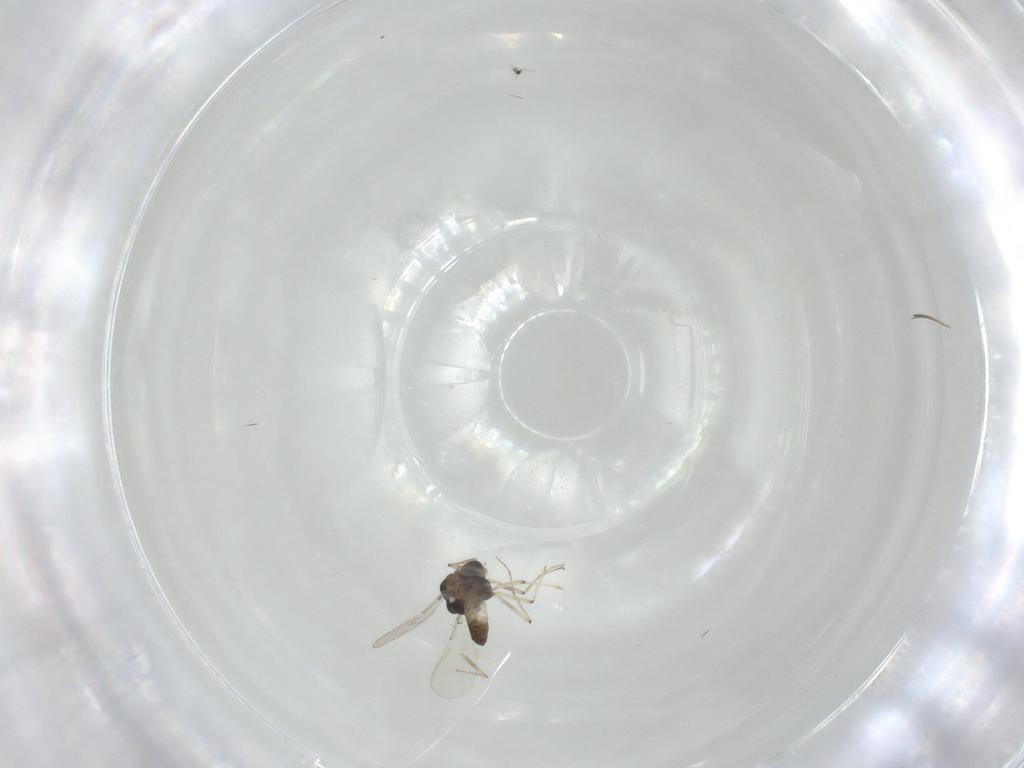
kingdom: Animalia
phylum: Arthropoda
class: Insecta
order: Diptera
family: Chironomidae
